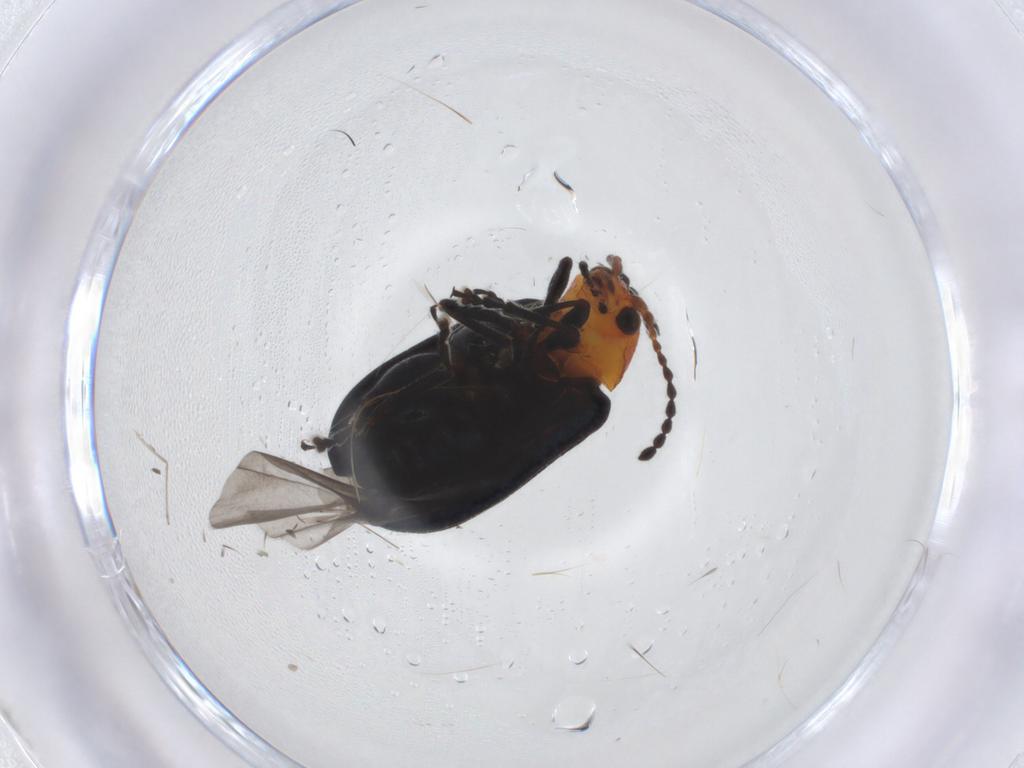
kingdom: Animalia
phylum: Arthropoda
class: Insecta
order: Coleoptera
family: Chrysomelidae
